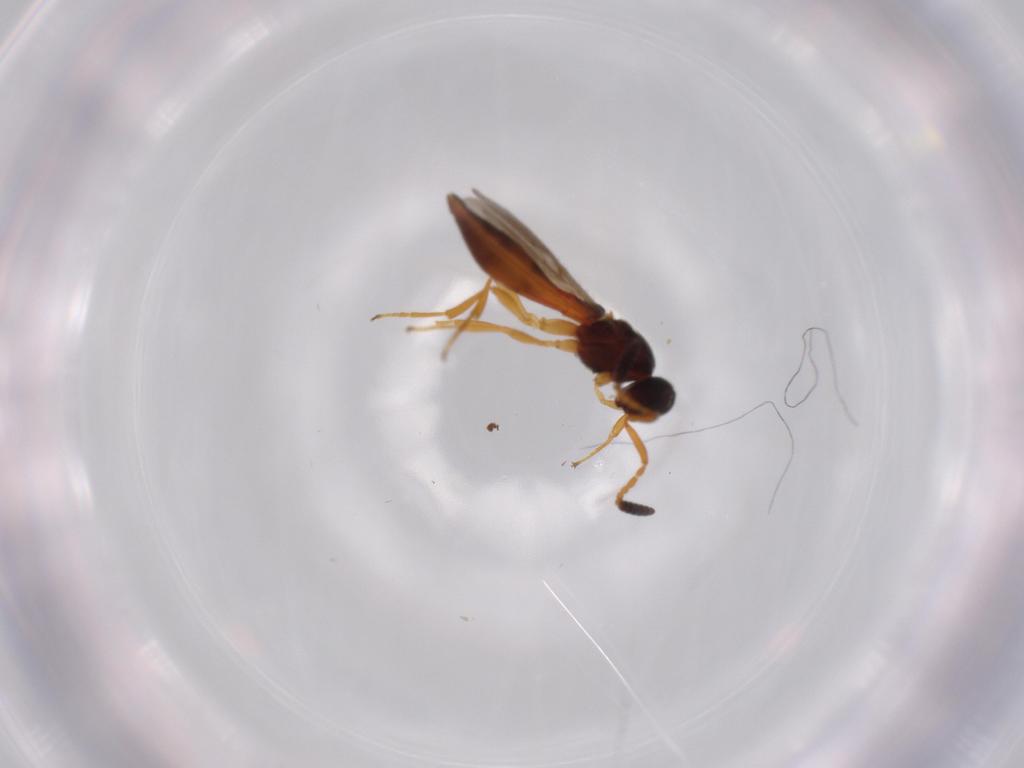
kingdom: Animalia
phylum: Arthropoda
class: Insecta
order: Hymenoptera
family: Scelionidae
